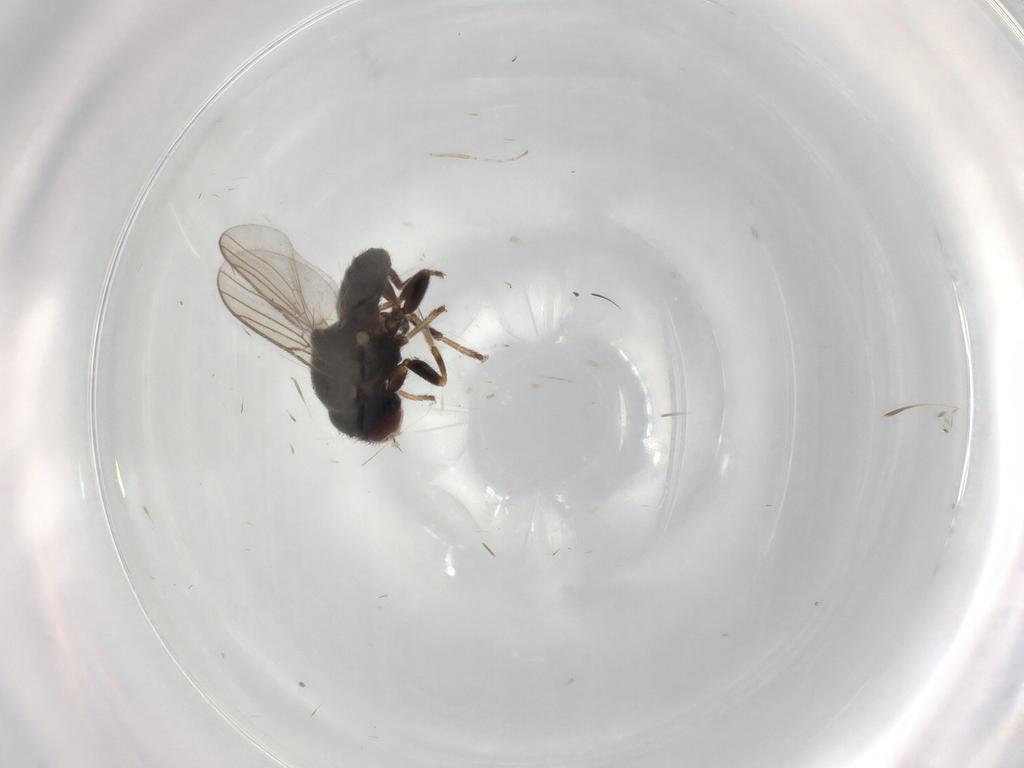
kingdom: Animalia
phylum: Arthropoda
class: Insecta
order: Diptera
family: Chloropidae
